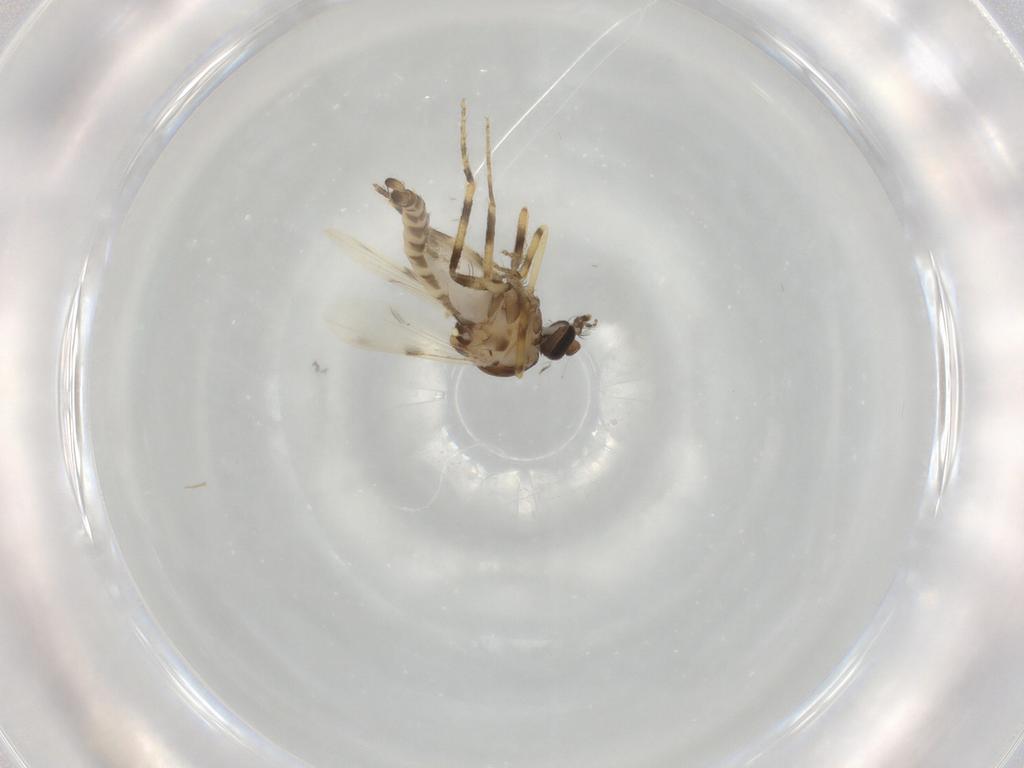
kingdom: Animalia
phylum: Arthropoda
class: Insecta
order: Diptera
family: Ceratopogonidae
